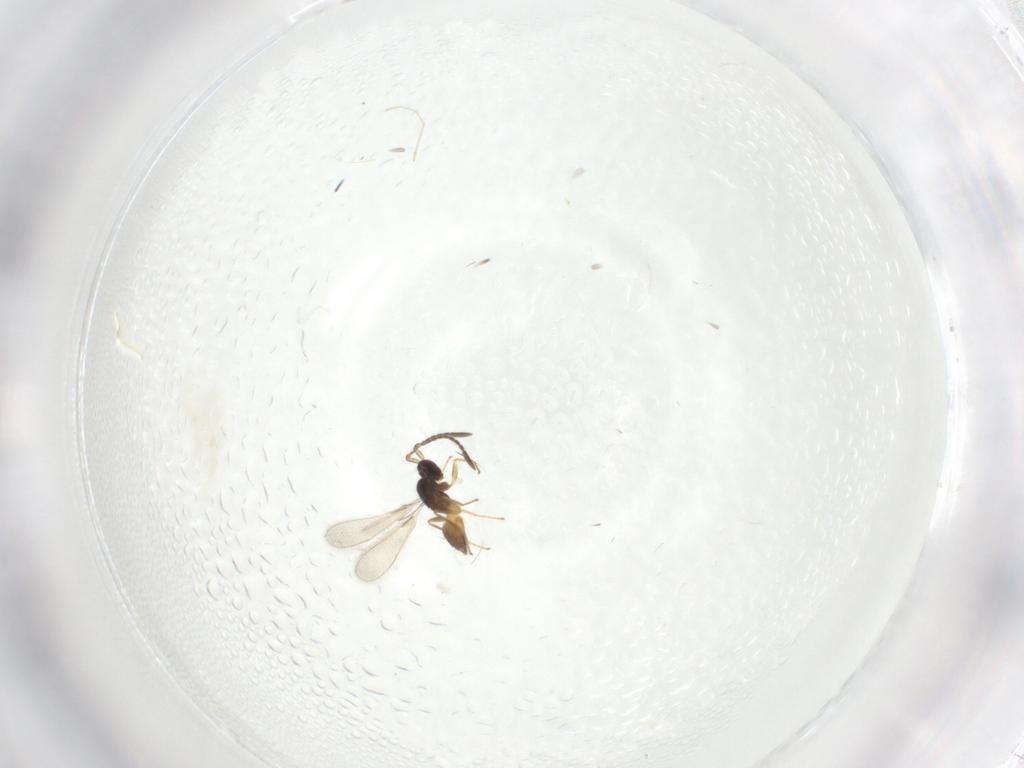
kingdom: Animalia
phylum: Arthropoda
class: Insecta
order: Hymenoptera
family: Mymaridae
